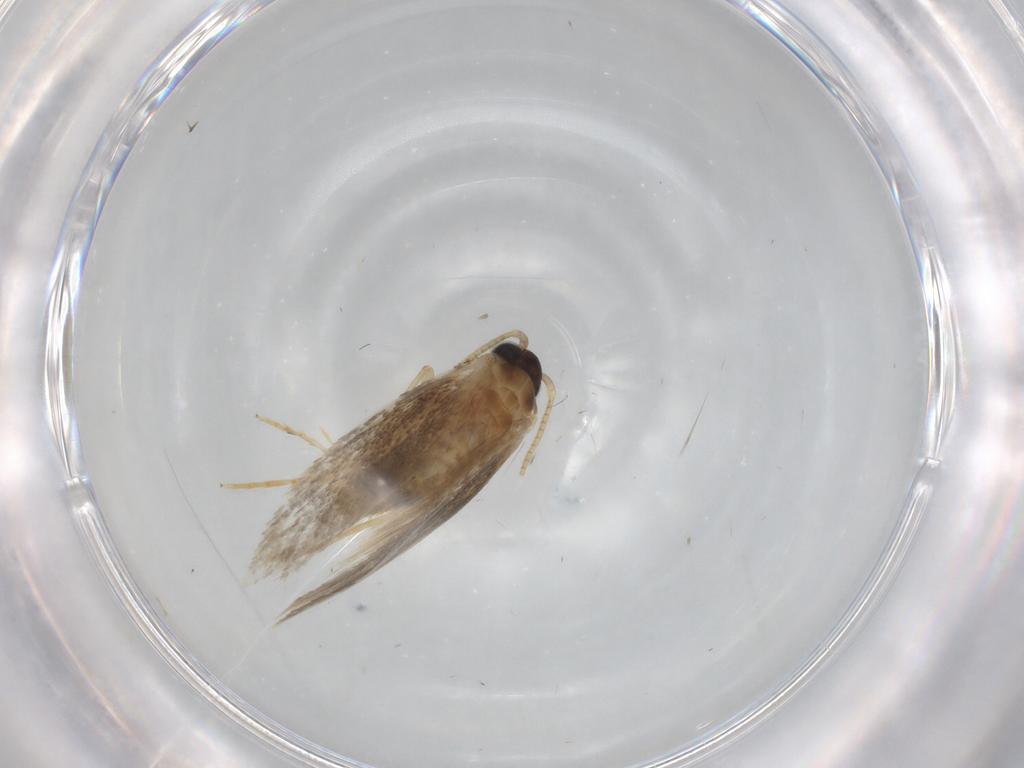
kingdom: Animalia
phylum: Arthropoda
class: Insecta
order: Lepidoptera
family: Tineidae
